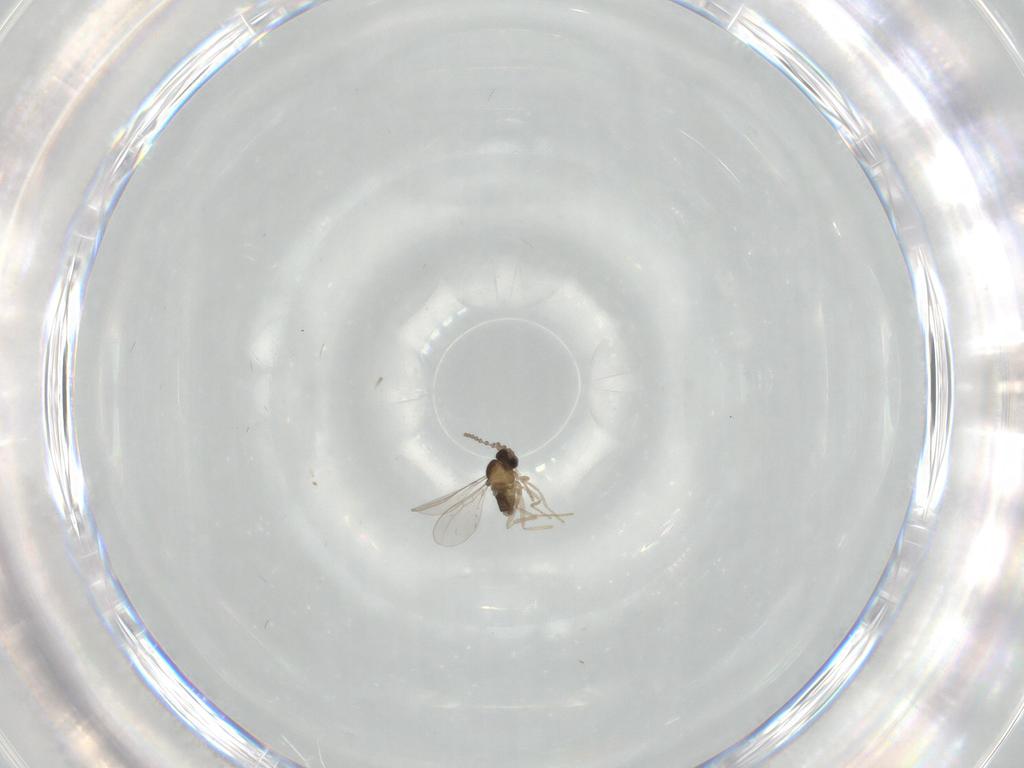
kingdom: Animalia
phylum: Arthropoda
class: Insecta
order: Diptera
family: Cecidomyiidae
